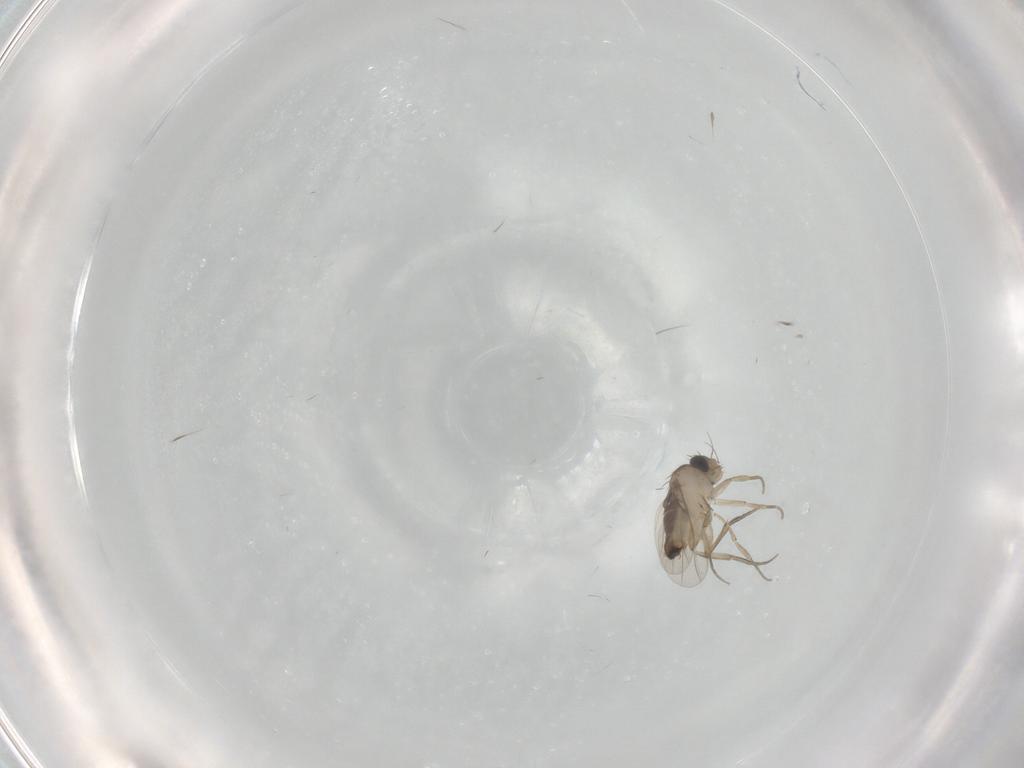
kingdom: Animalia
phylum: Arthropoda
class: Insecta
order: Diptera
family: Phoridae
